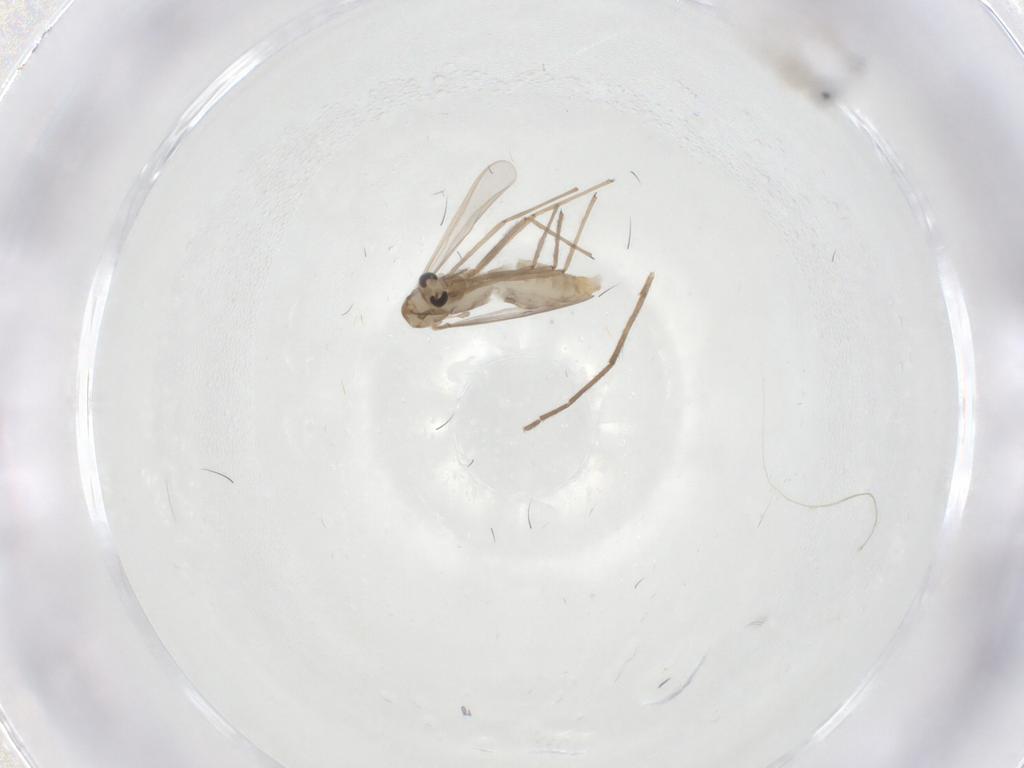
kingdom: Animalia
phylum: Arthropoda
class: Insecta
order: Diptera
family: Chironomidae
